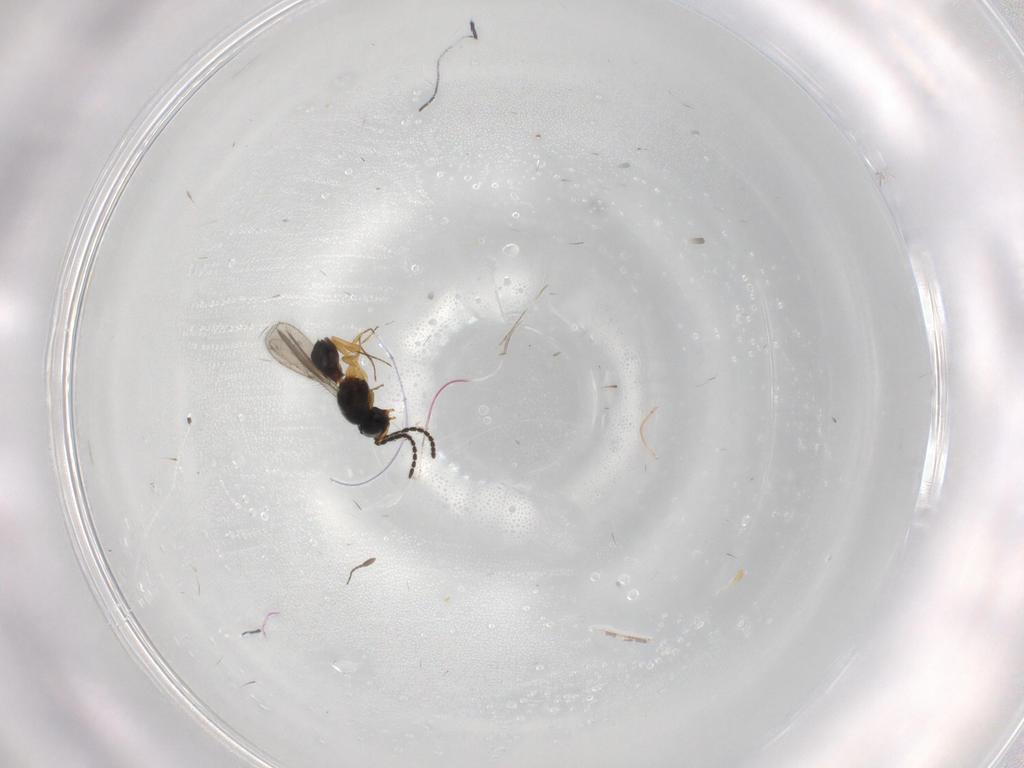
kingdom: Animalia
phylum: Arthropoda
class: Insecta
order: Hymenoptera
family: Scelionidae
